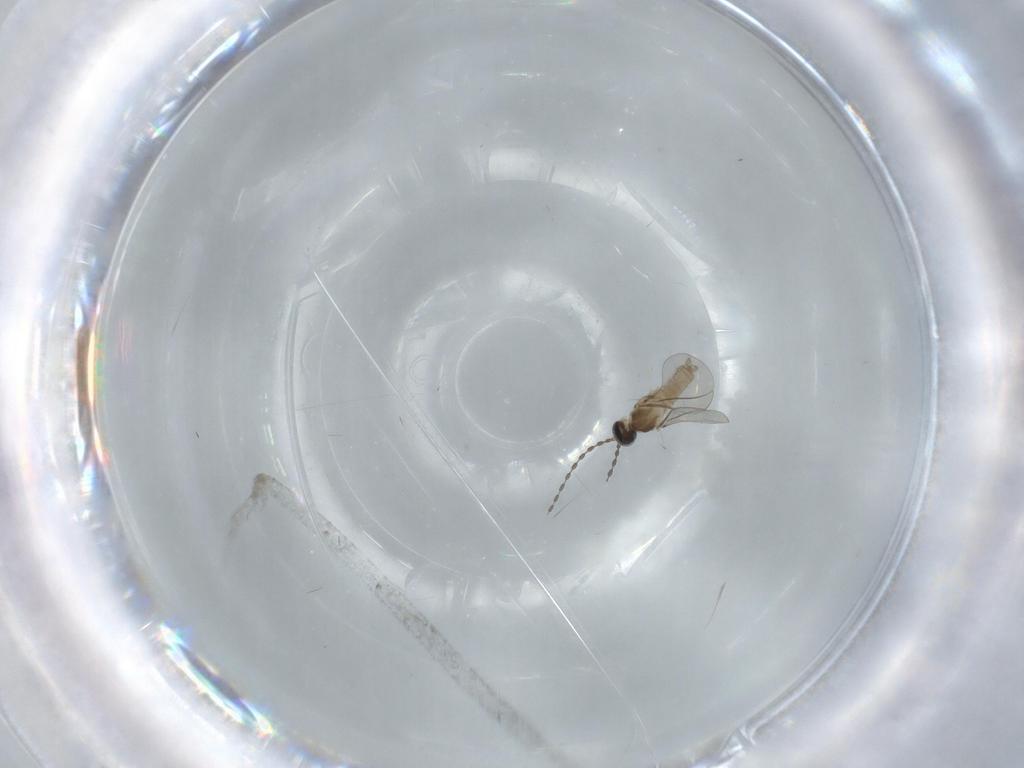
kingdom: Animalia
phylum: Arthropoda
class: Insecta
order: Diptera
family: Cecidomyiidae
